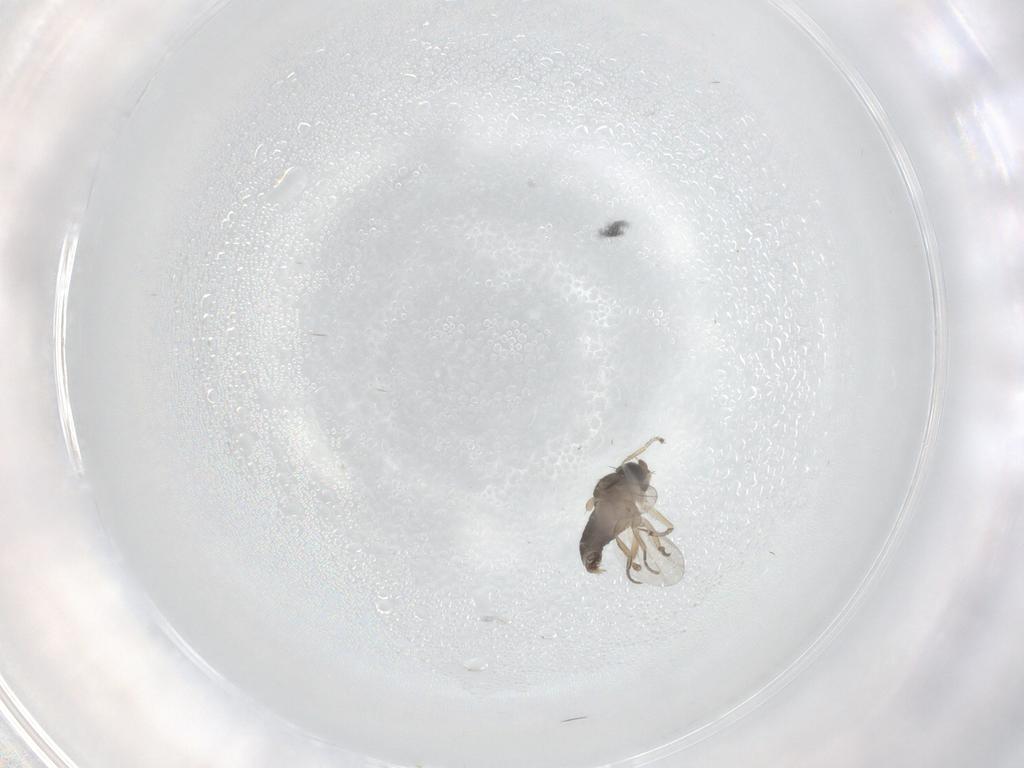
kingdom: Animalia
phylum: Arthropoda
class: Insecta
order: Diptera
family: Phoridae
